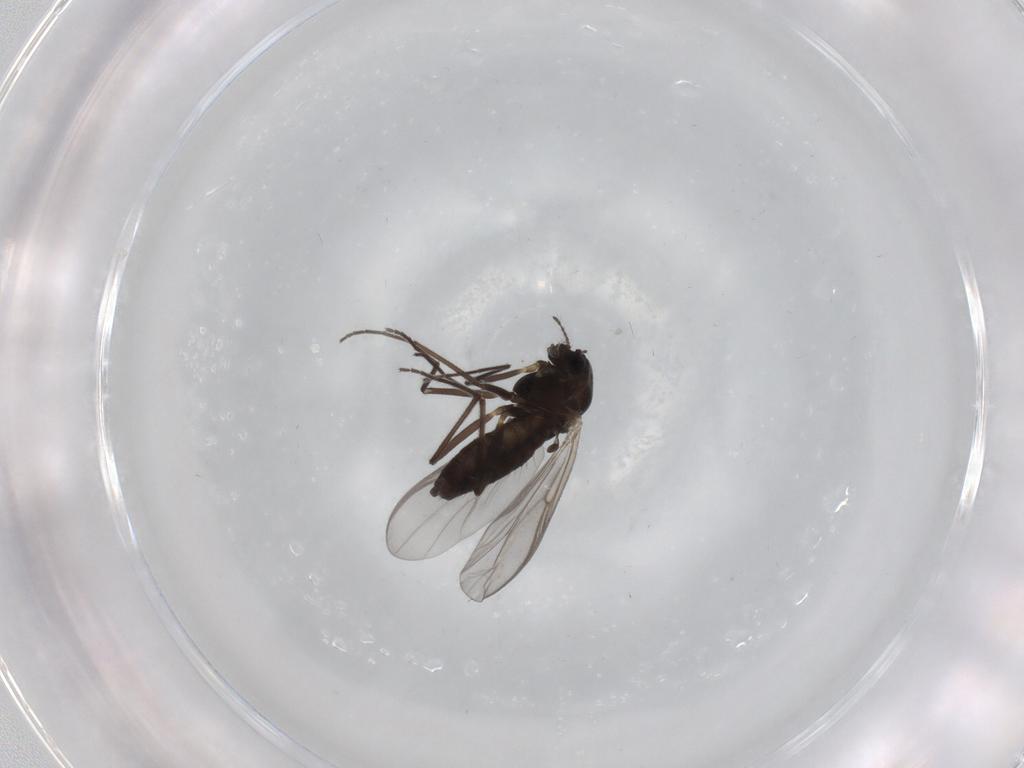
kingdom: Animalia
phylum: Arthropoda
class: Insecta
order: Diptera
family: Chironomidae
